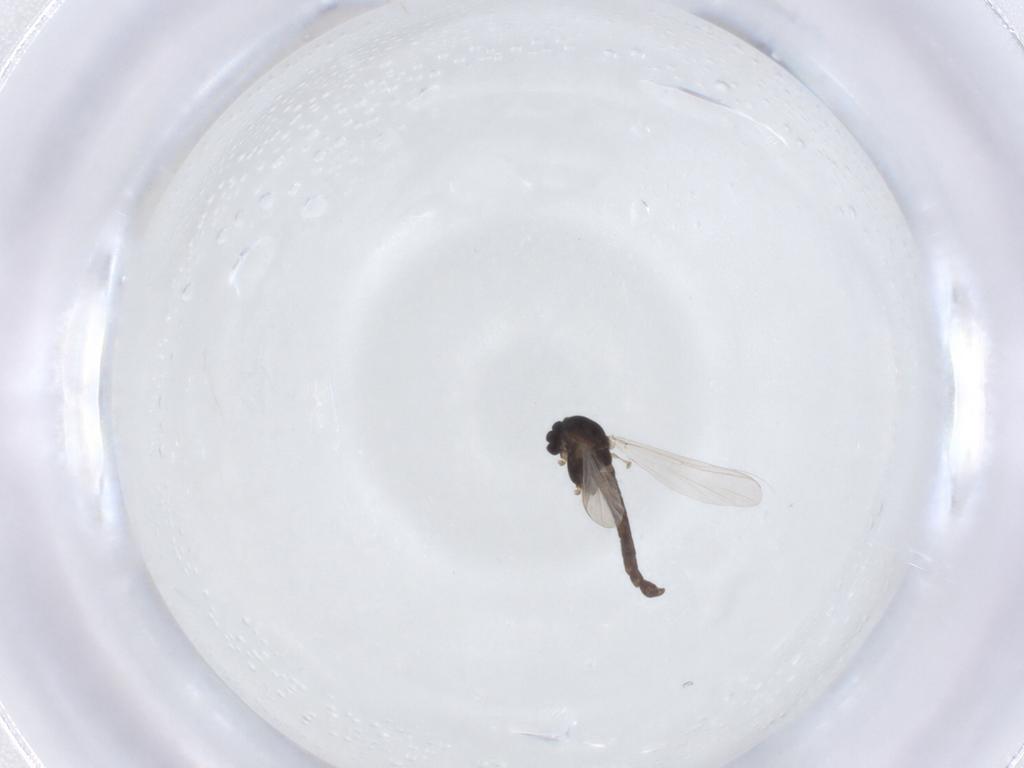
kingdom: Animalia
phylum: Arthropoda
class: Insecta
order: Diptera
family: Chironomidae
